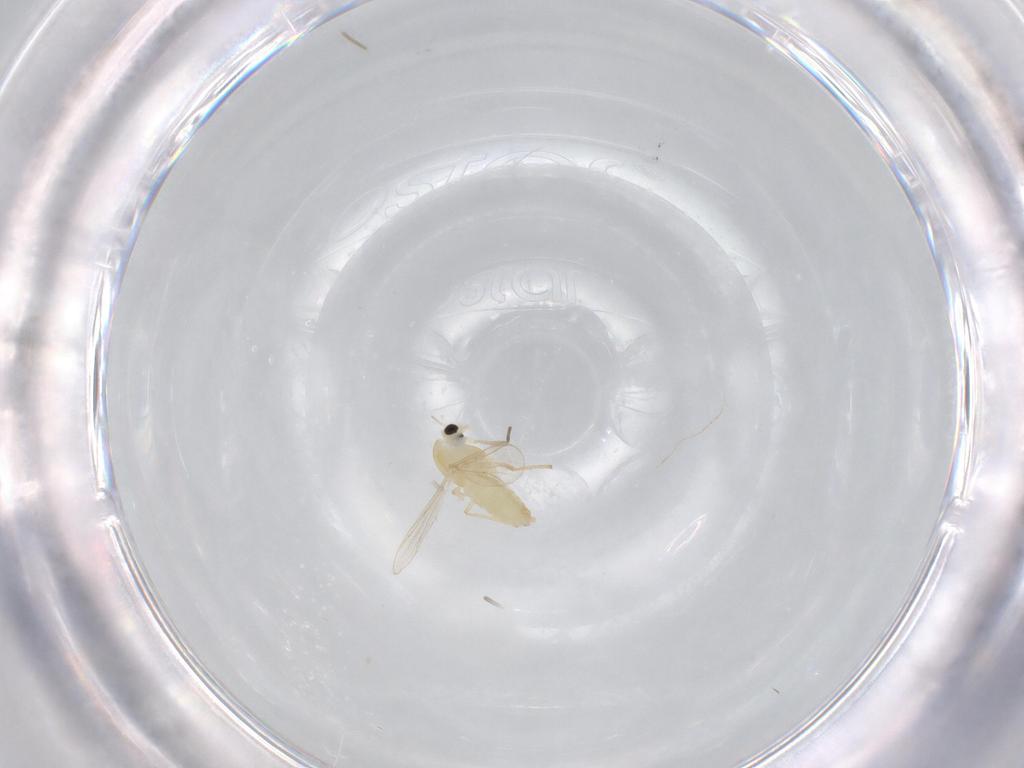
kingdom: Animalia
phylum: Arthropoda
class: Insecta
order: Diptera
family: Chironomidae
